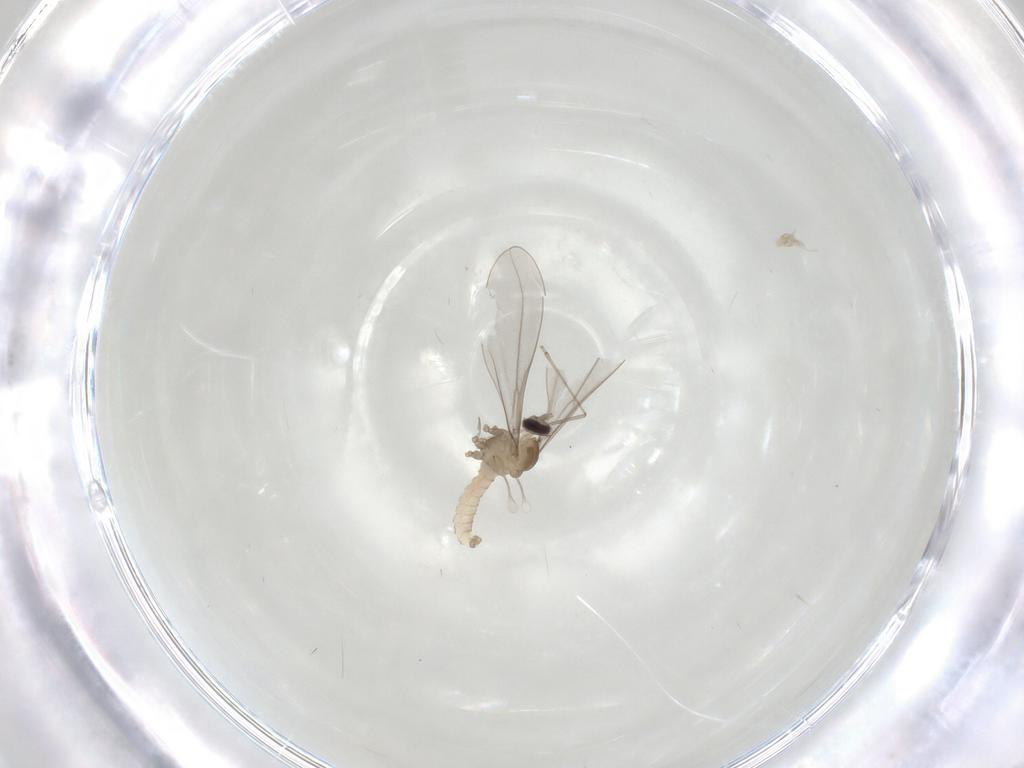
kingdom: Animalia
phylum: Arthropoda
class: Insecta
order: Diptera
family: Cecidomyiidae
